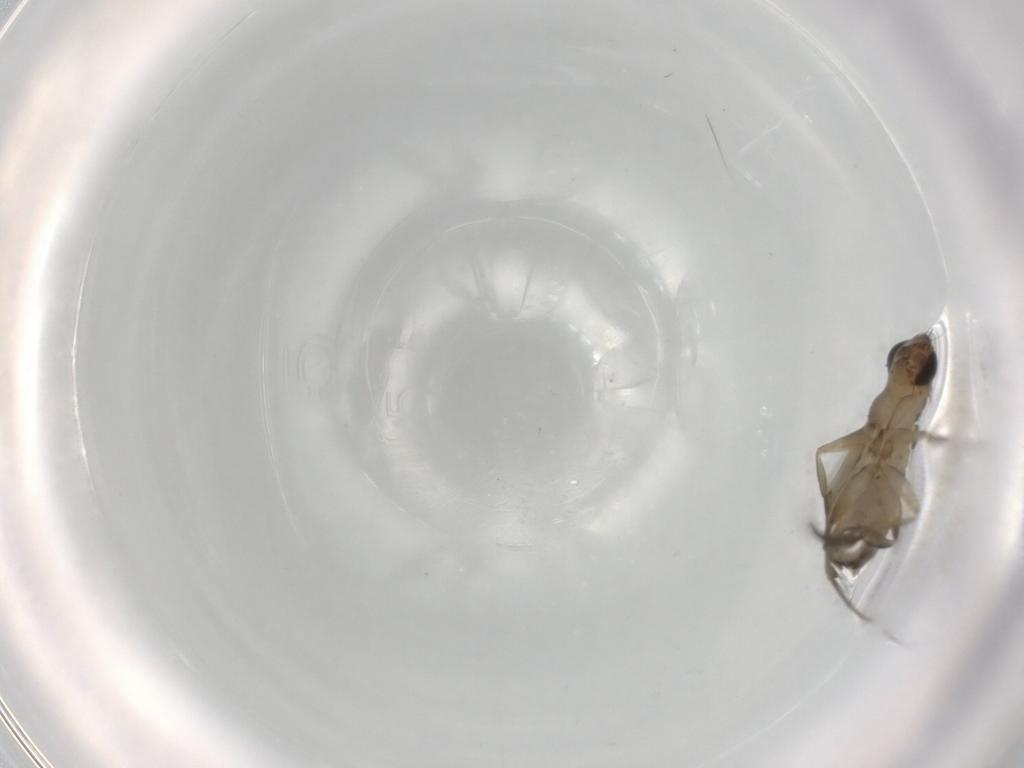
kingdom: Animalia
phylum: Arthropoda
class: Insecta
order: Diptera
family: Phoridae
